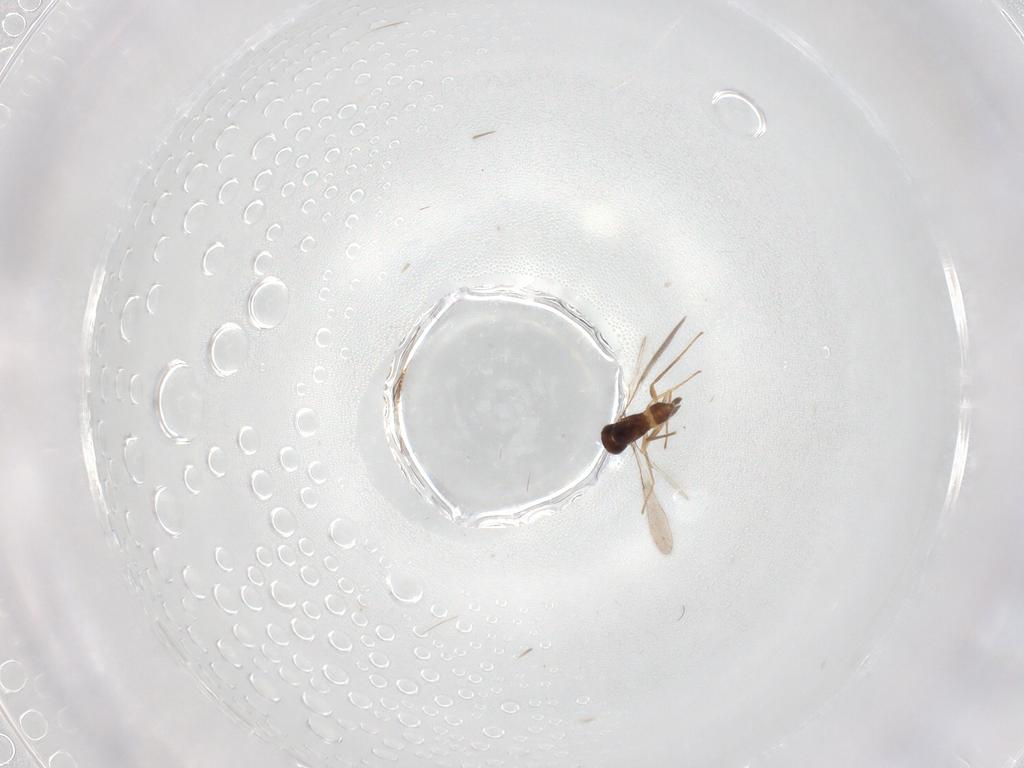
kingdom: Animalia
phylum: Arthropoda
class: Insecta
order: Hymenoptera
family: Mymaridae
